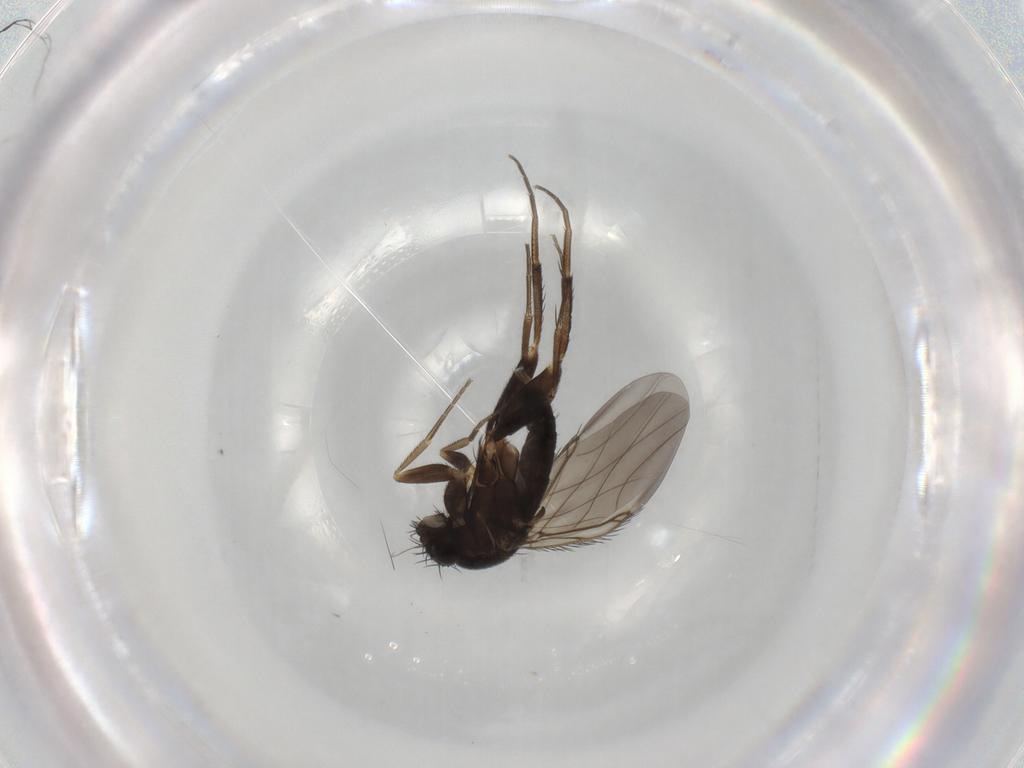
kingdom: Animalia
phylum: Arthropoda
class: Insecta
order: Diptera
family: Phoridae
